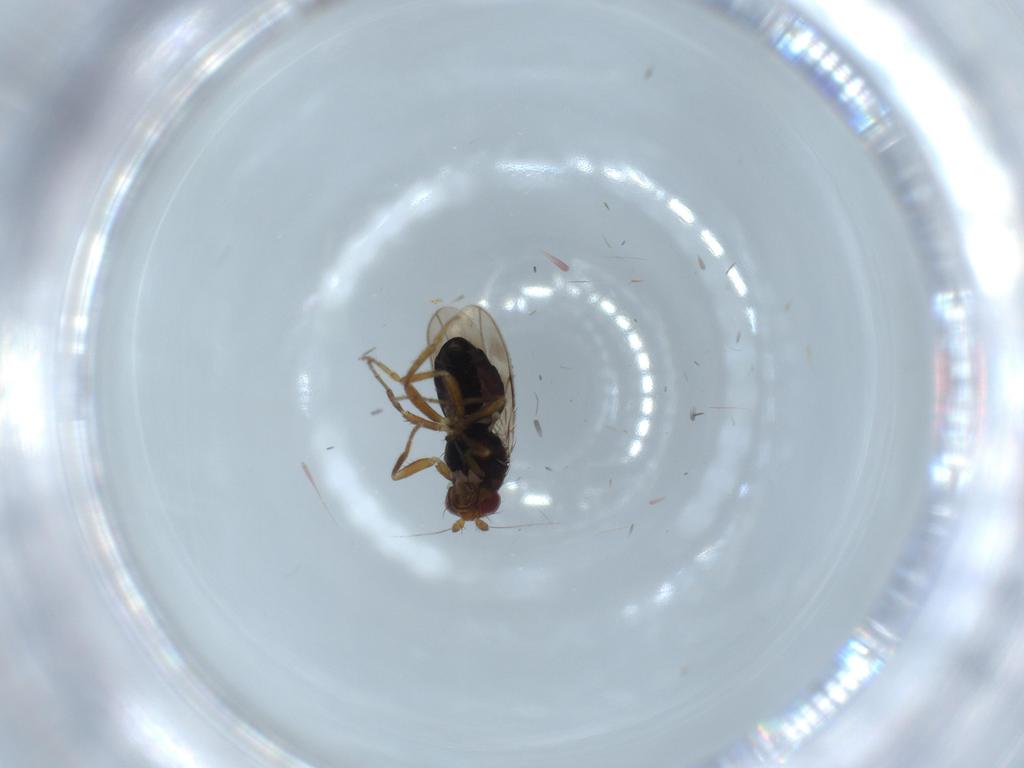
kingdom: Animalia
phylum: Arthropoda
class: Insecta
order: Diptera
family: Sphaeroceridae
